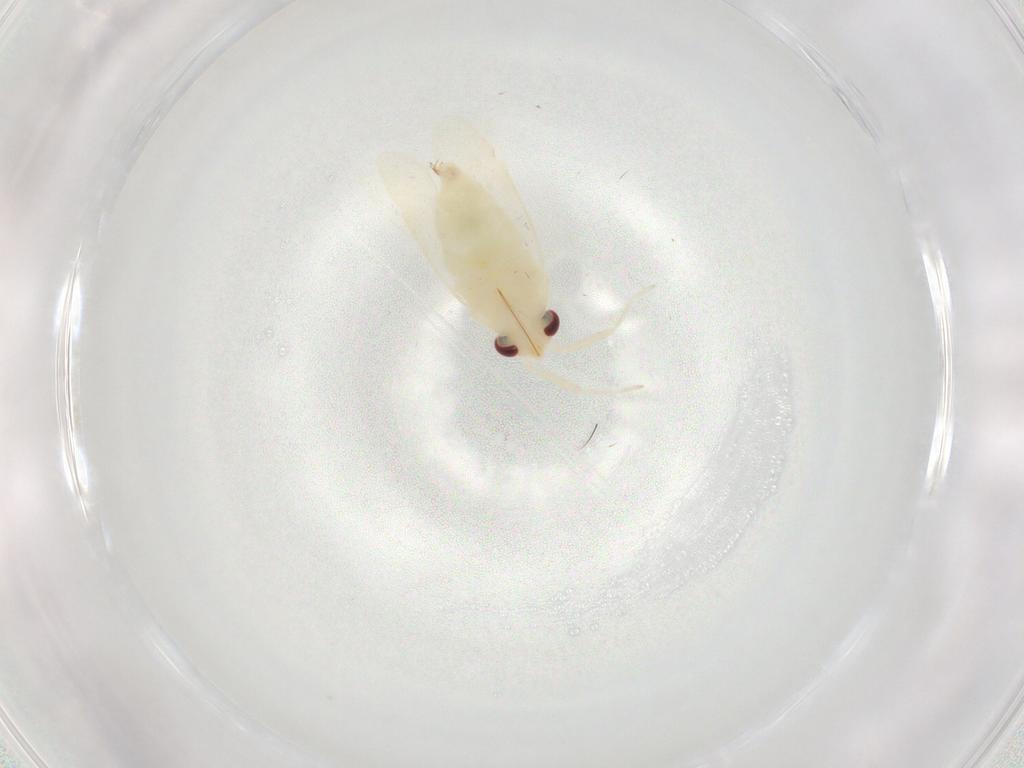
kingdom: Animalia
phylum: Arthropoda
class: Insecta
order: Hemiptera
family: Miridae
